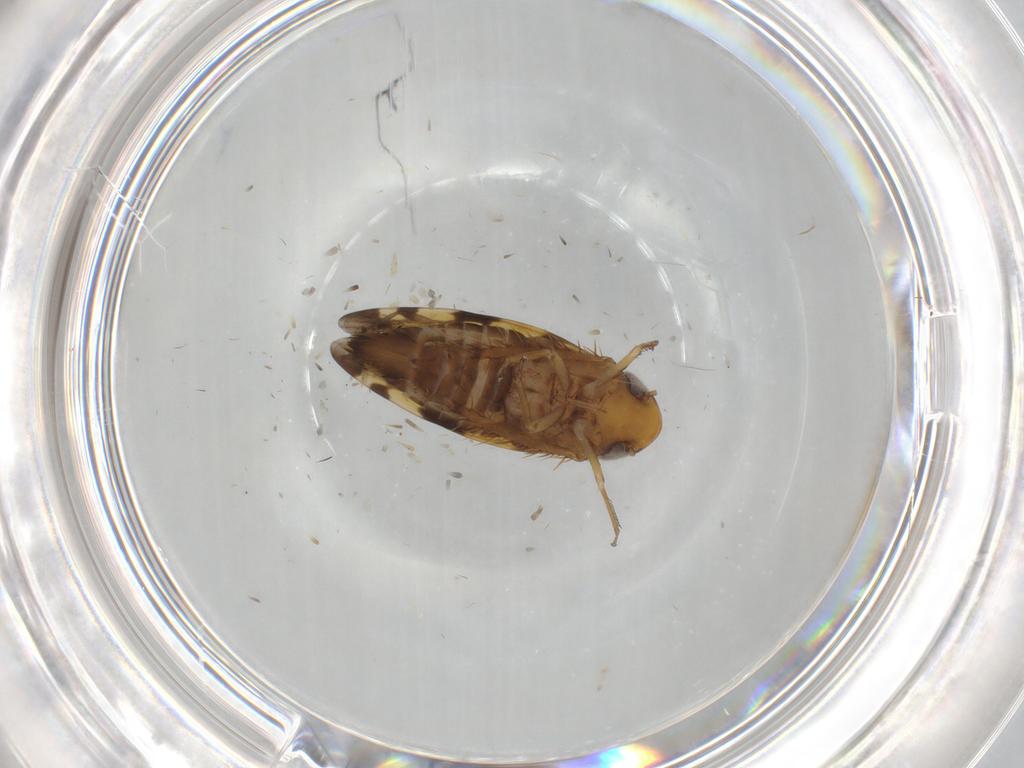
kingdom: Animalia
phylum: Arthropoda
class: Insecta
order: Hemiptera
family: Cicadellidae
